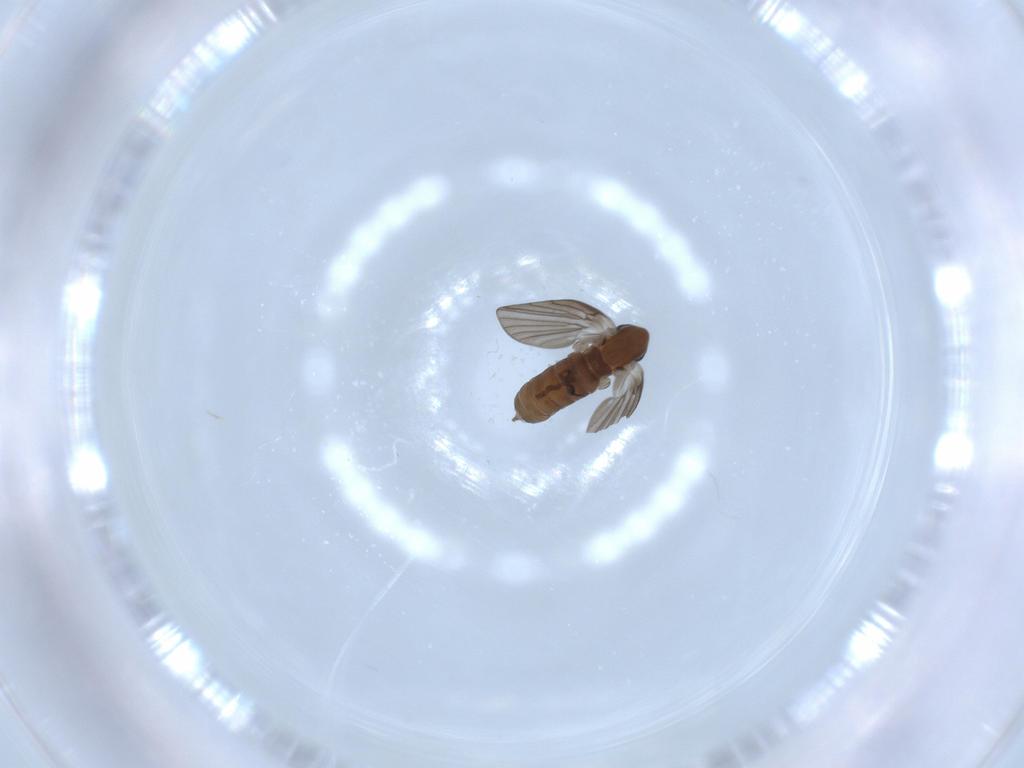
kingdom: Animalia
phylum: Arthropoda
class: Insecta
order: Diptera
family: Psychodidae
